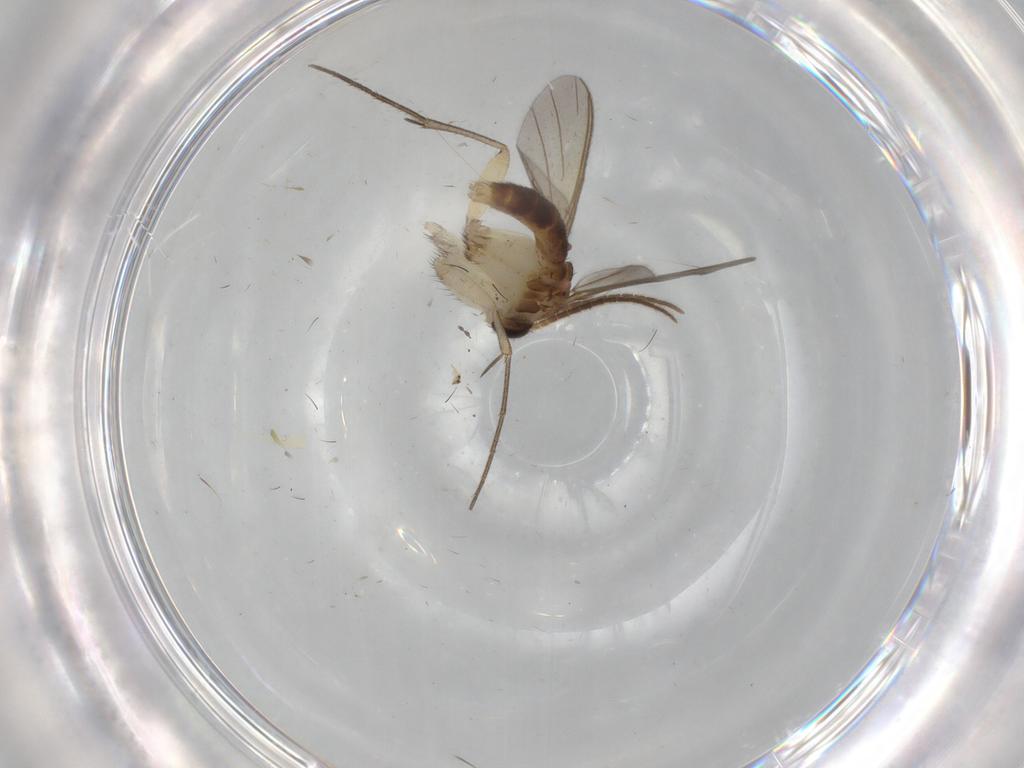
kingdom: Animalia
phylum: Arthropoda
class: Insecta
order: Diptera
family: Mycetophilidae
